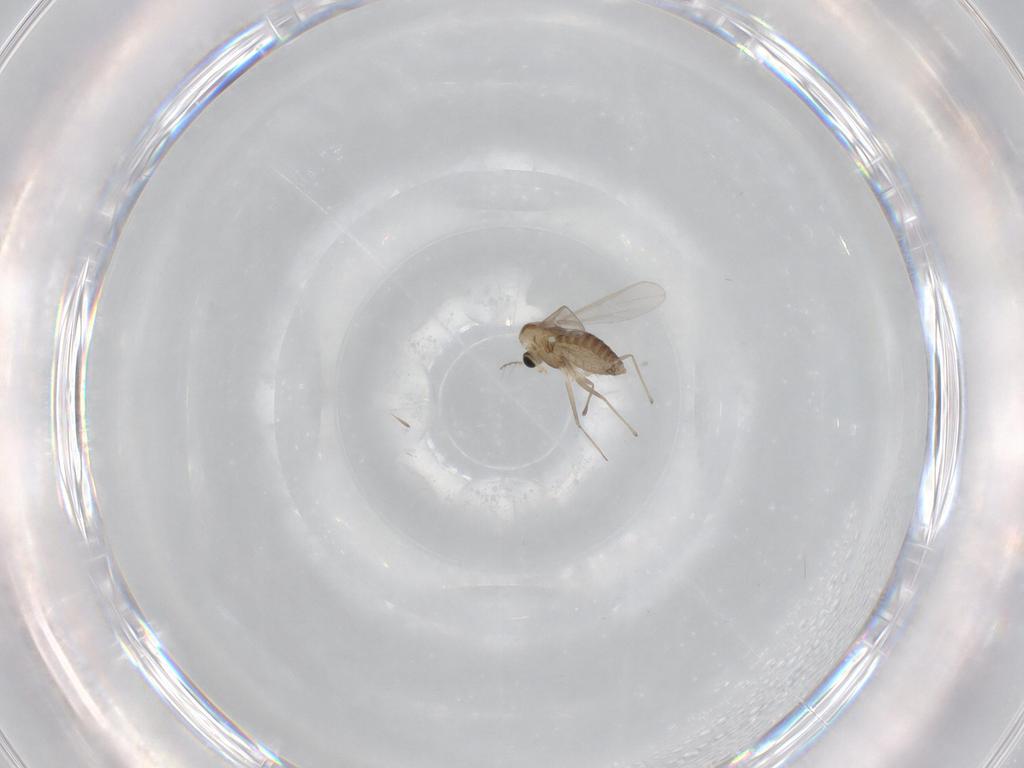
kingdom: Animalia
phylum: Arthropoda
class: Insecta
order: Diptera
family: Chironomidae
